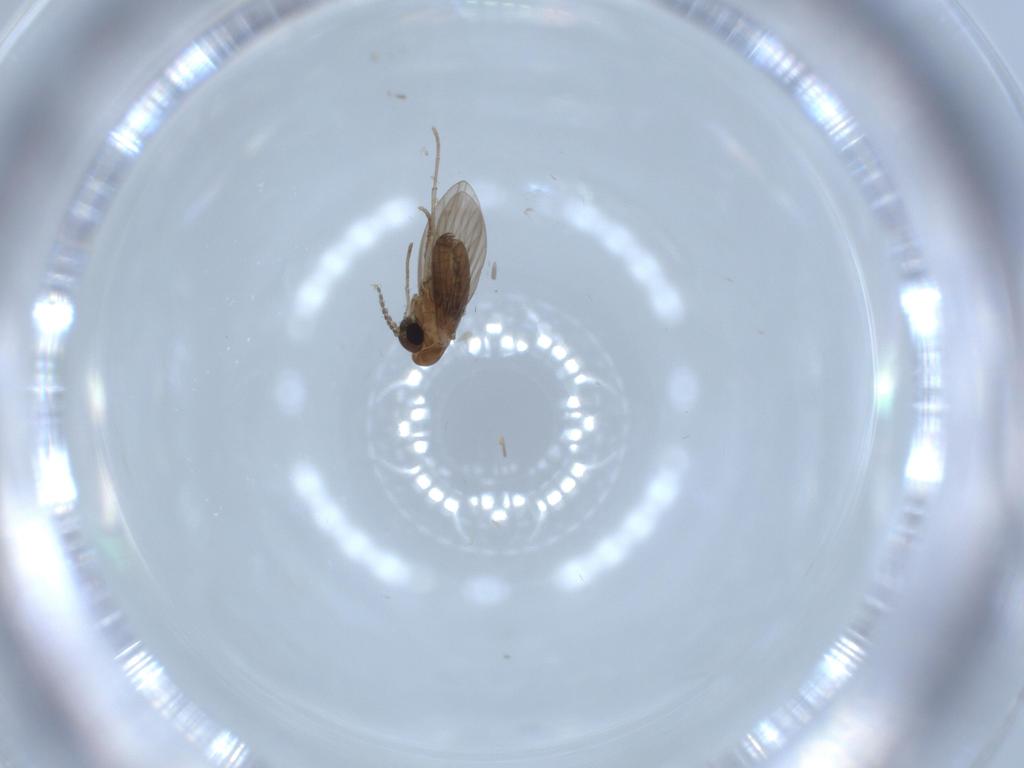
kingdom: Animalia
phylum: Arthropoda
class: Insecta
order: Diptera
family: Psychodidae
